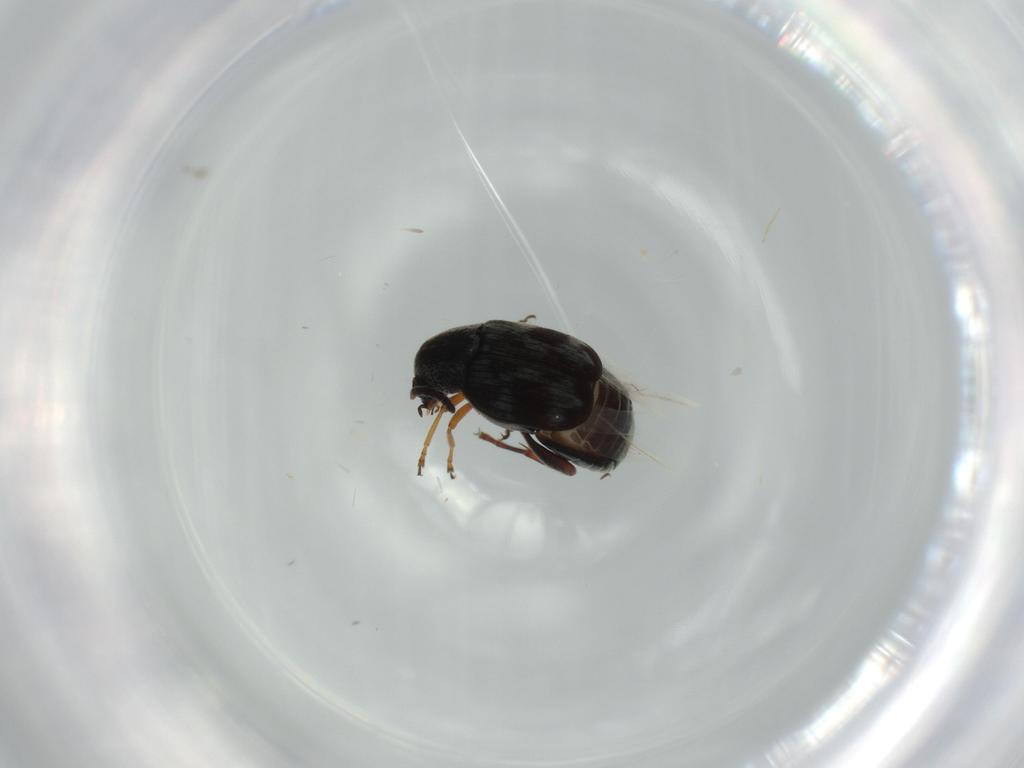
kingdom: Animalia
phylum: Arthropoda
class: Insecta
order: Coleoptera
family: Chrysomelidae
